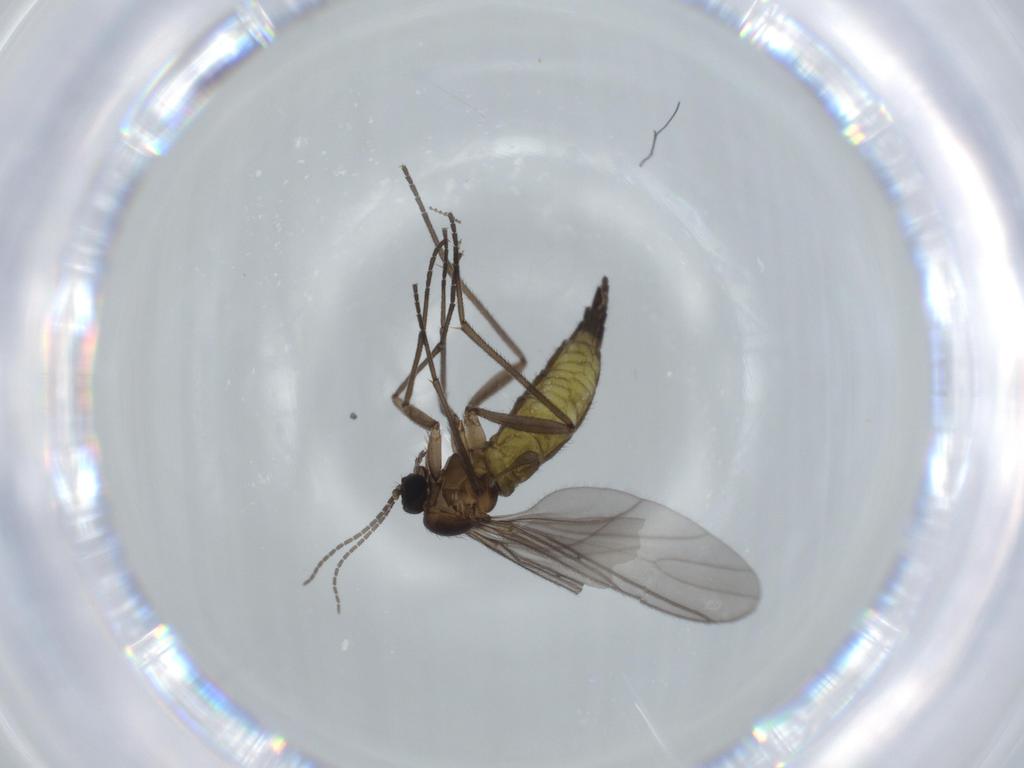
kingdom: Animalia
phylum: Arthropoda
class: Insecta
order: Diptera
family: Sciaridae
